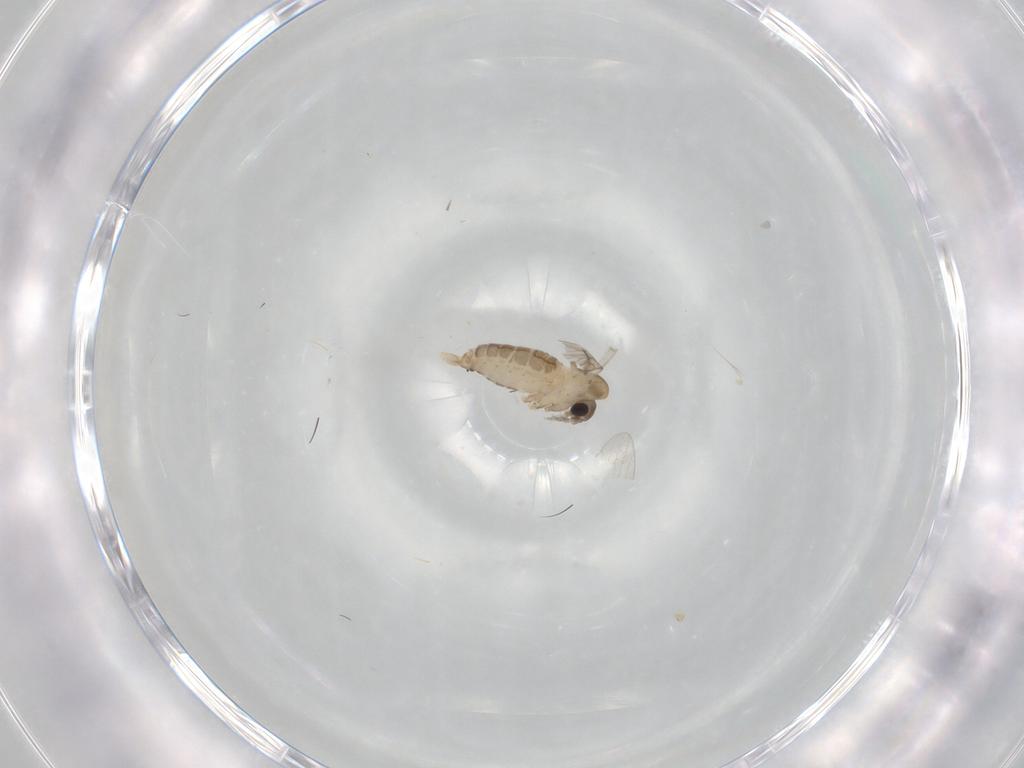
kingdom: Animalia
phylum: Arthropoda
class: Insecta
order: Diptera
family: Psychodidae
